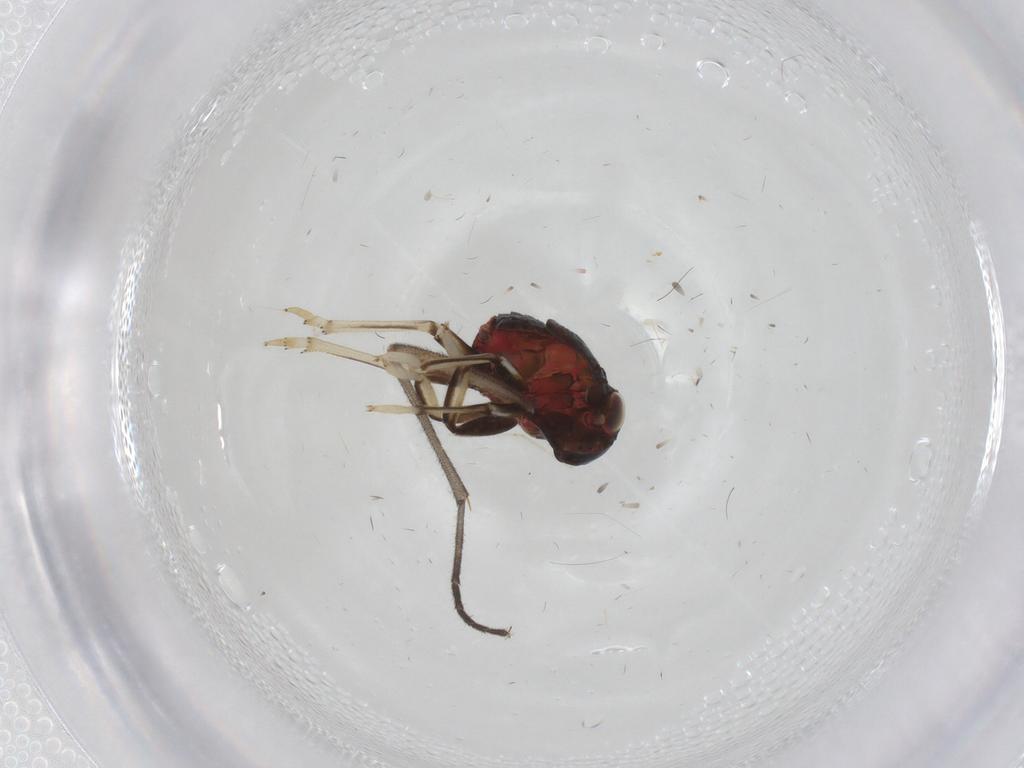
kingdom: Animalia
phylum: Arthropoda
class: Insecta
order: Hemiptera
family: Issidae
